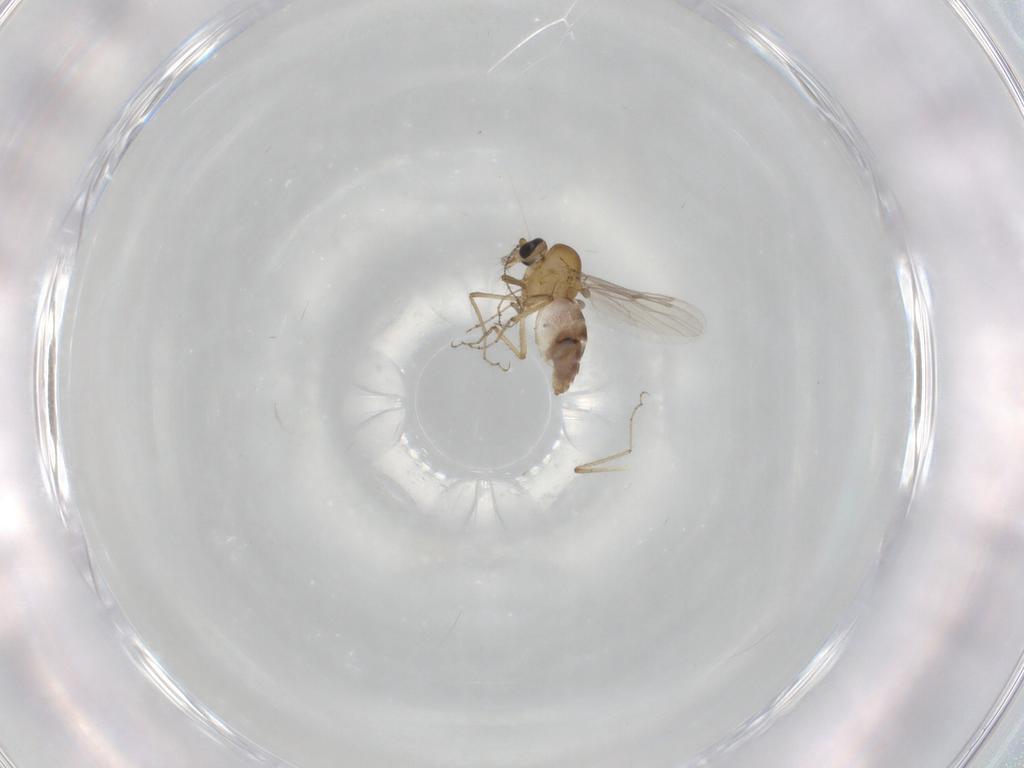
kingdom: Animalia
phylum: Arthropoda
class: Insecta
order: Diptera
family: Ceratopogonidae
